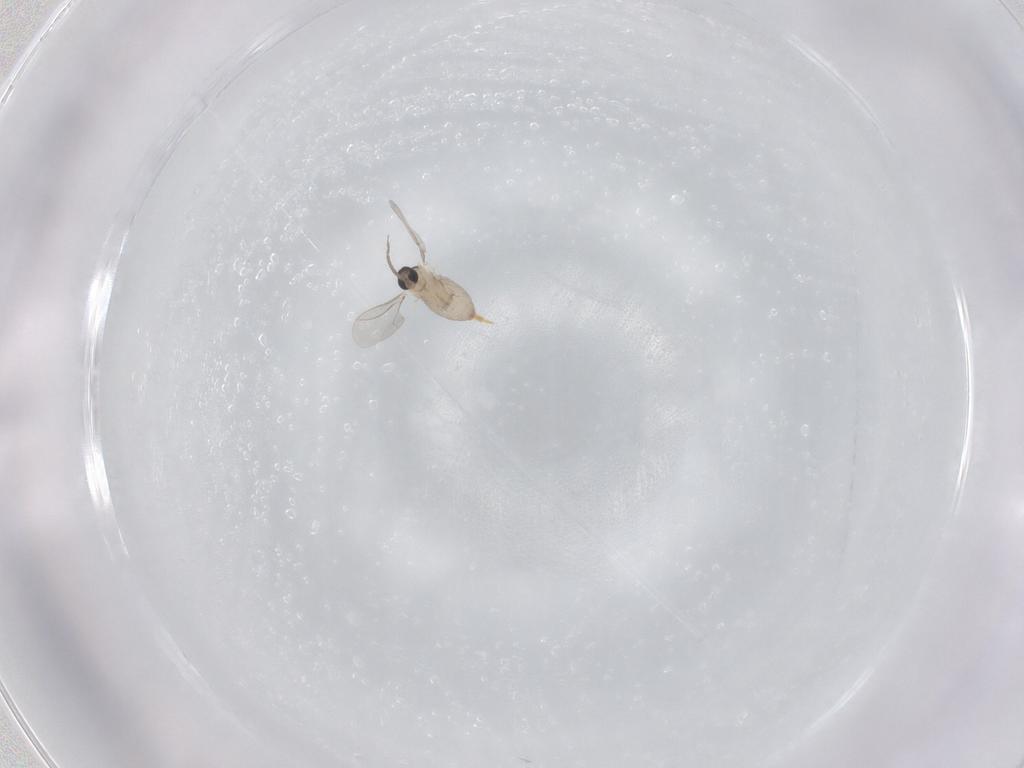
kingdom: Animalia
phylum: Arthropoda
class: Insecta
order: Diptera
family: Cecidomyiidae
